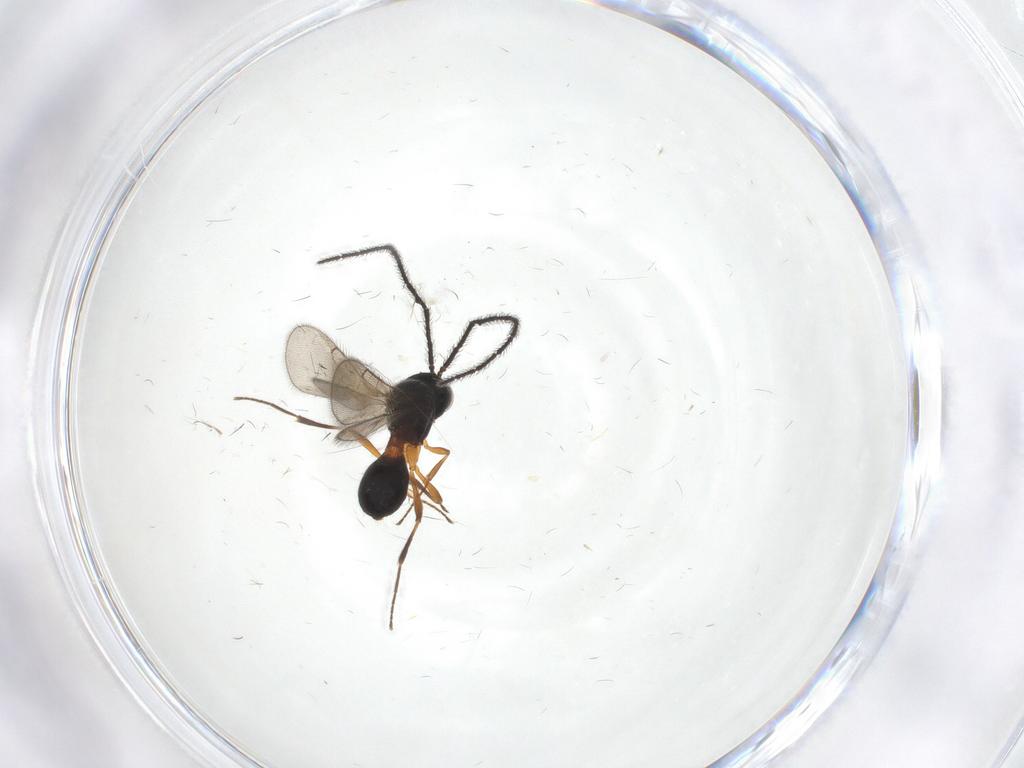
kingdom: Animalia
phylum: Arthropoda
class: Insecta
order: Hymenoptera
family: Scelionidae
